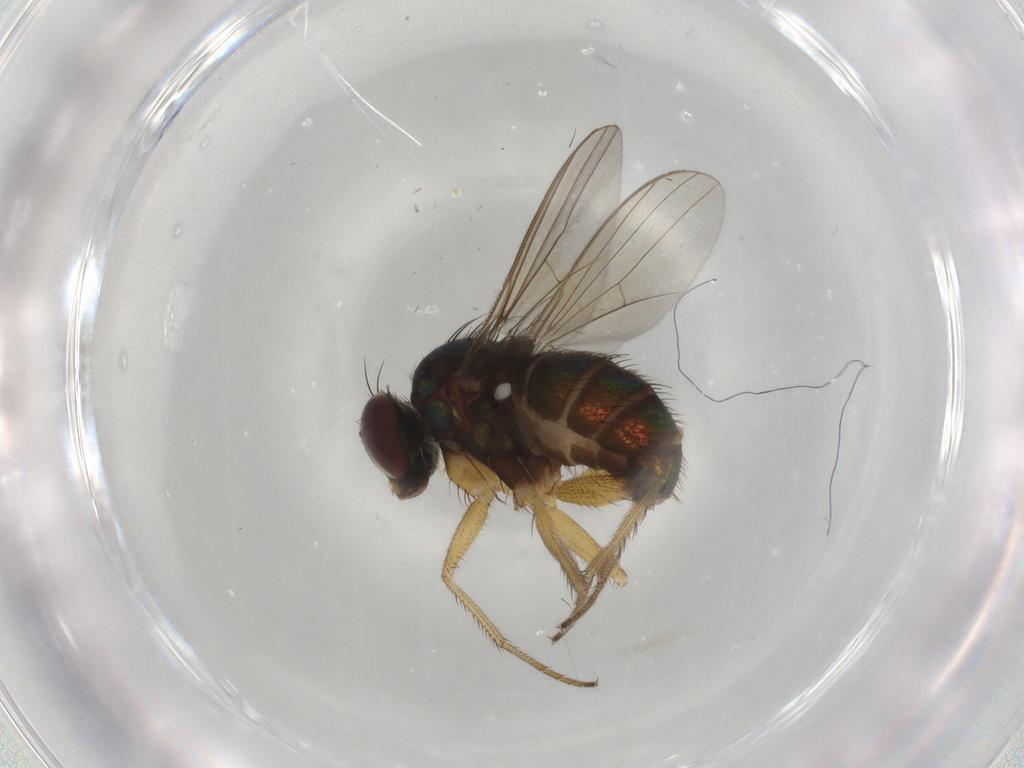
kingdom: Animalia
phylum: Arthropoda
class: Insecta
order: Diptera
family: Dolichopodidae
